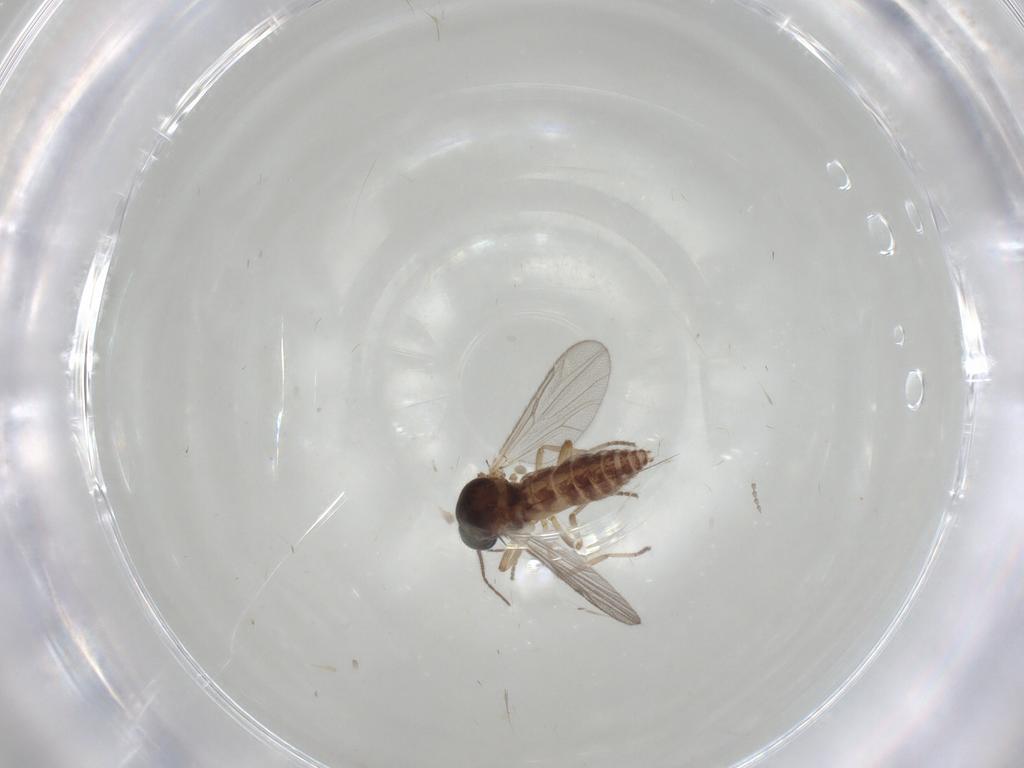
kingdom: Animalia
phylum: Arthropoda
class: Insecta
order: Diptera
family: Ceratopogonidae
